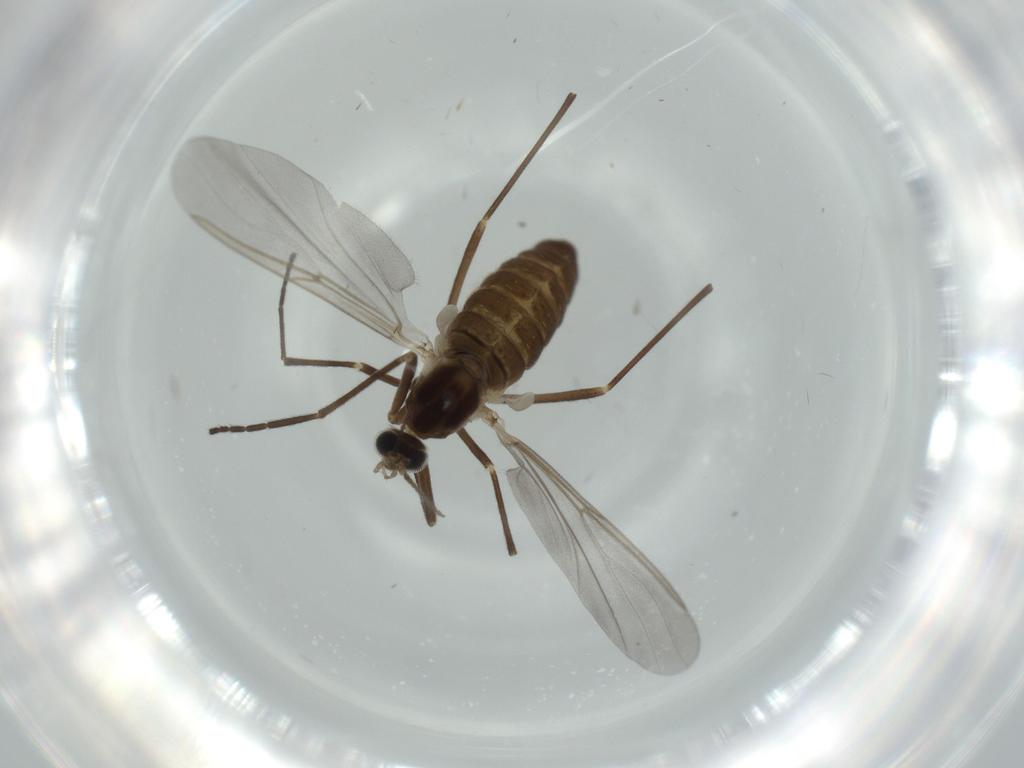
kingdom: Animalia
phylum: Arthropoda
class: Insecta
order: Diptera
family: Cecidomyiidae
